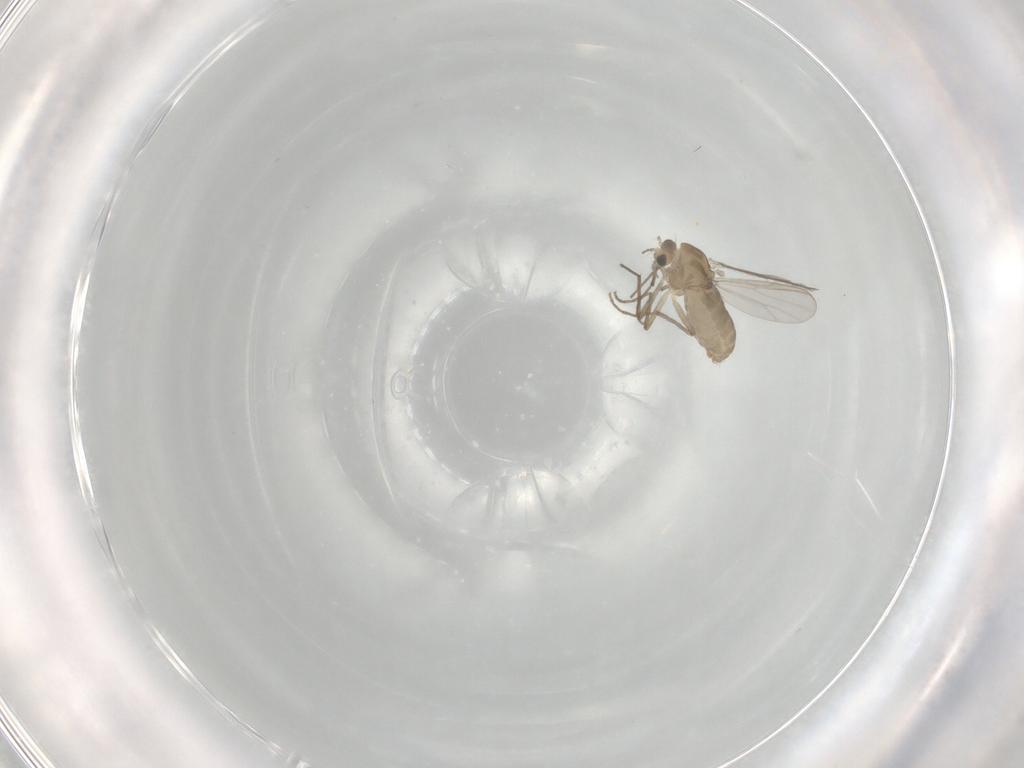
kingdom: Animalia
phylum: Arthropoda
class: Insecta
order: Diptera
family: Chironomidae
